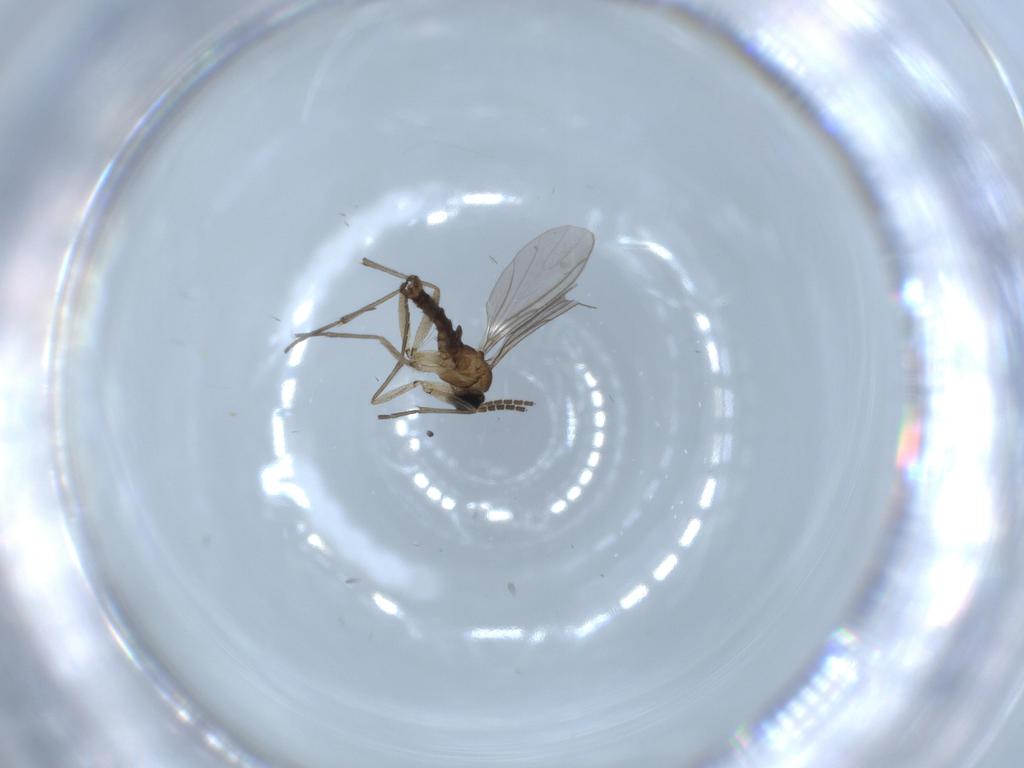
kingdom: Animalia
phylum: Arthropoda
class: Insecta
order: Diptera
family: Sciaridae
